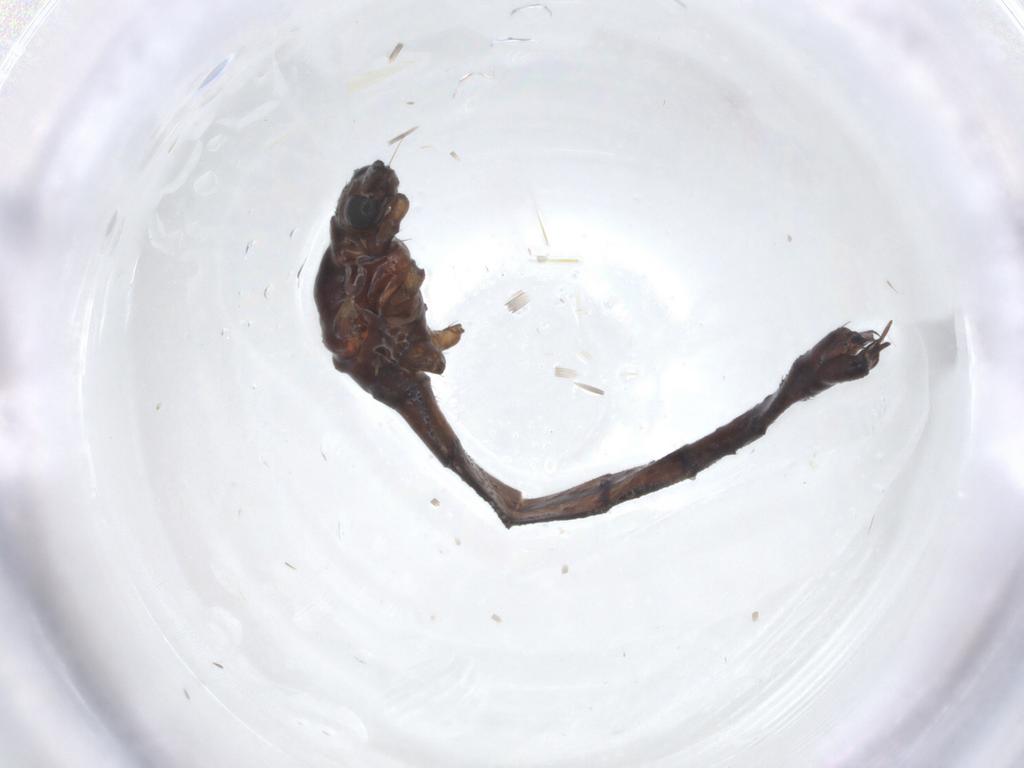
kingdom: Animalia
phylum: Arthropoda
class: Insecta
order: Diptera
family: Limoniidae
